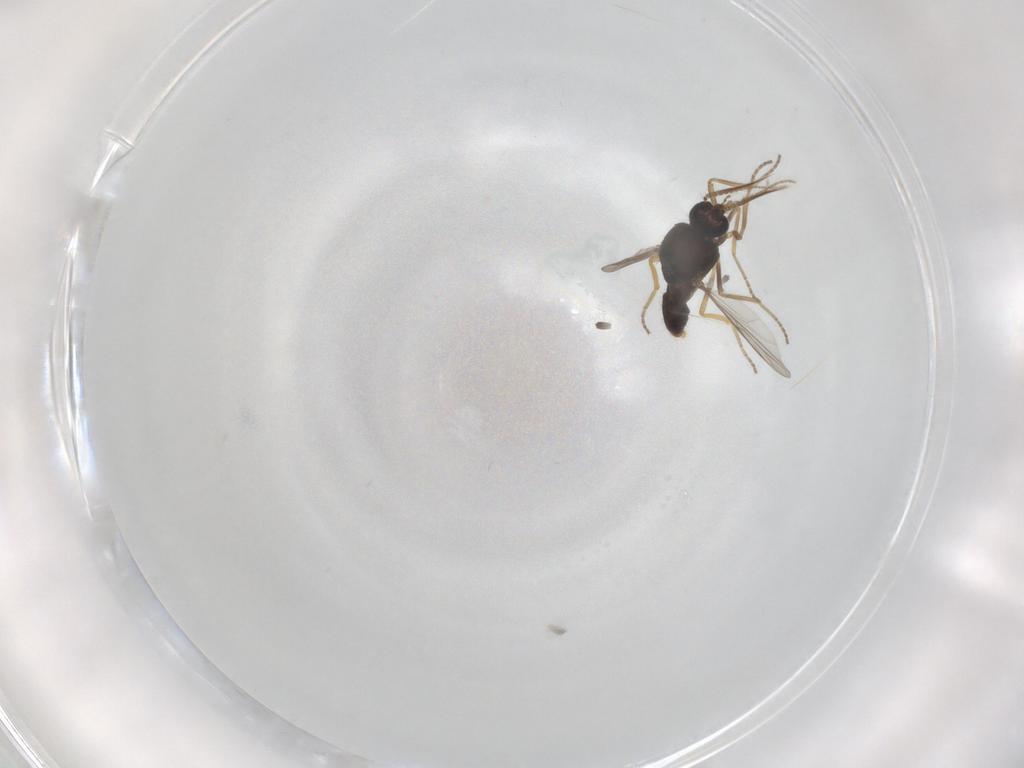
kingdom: Animalia
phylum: Arthropoda
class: Insecta
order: Diptera
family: Ceratopogonidae
